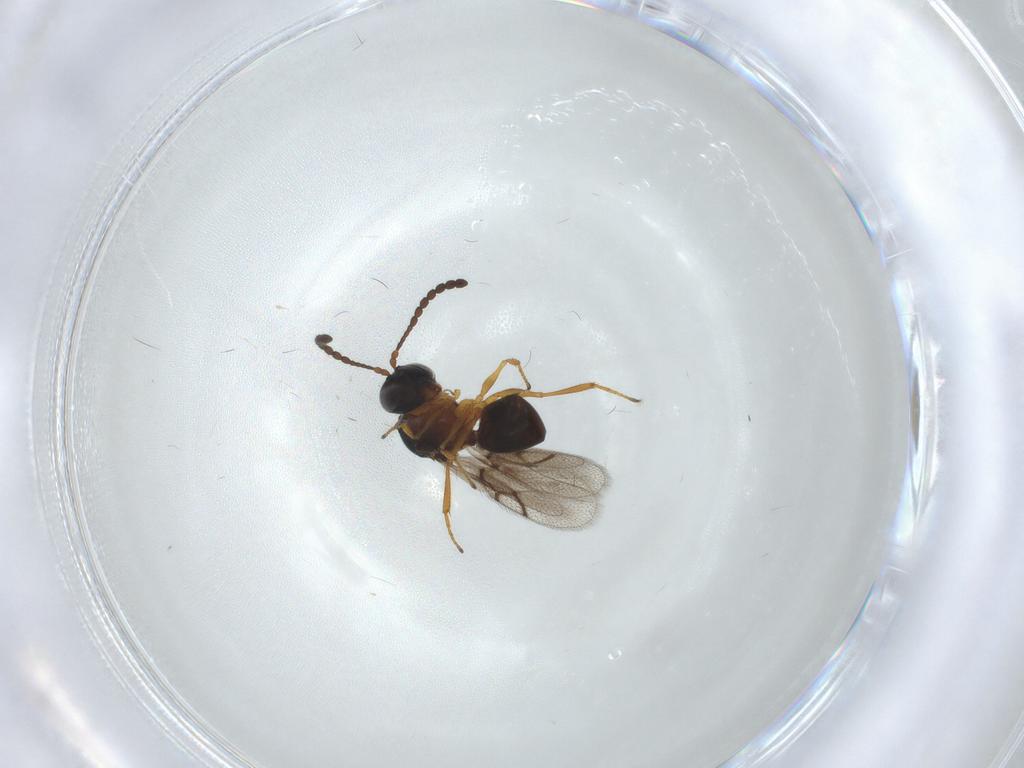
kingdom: Animalia
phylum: Arthropoda
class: Insecta
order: Hymenoptera
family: Figitidae
